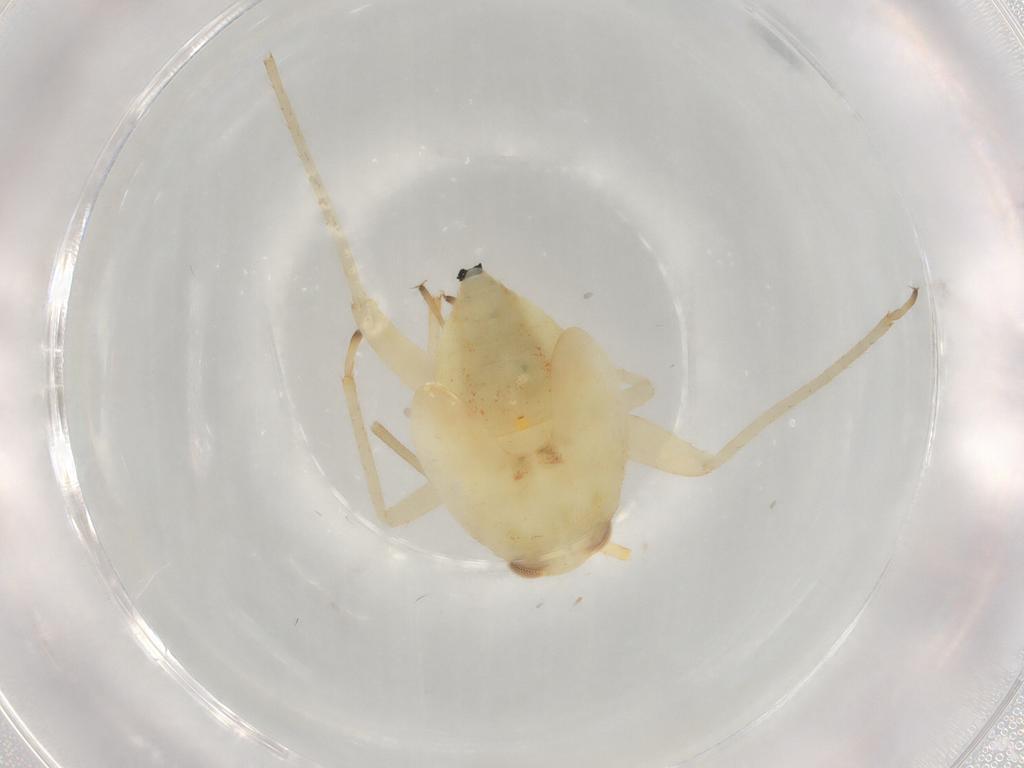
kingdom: Animalia
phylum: Arthropoda
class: Insecta
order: Hemiptera
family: Miridae
